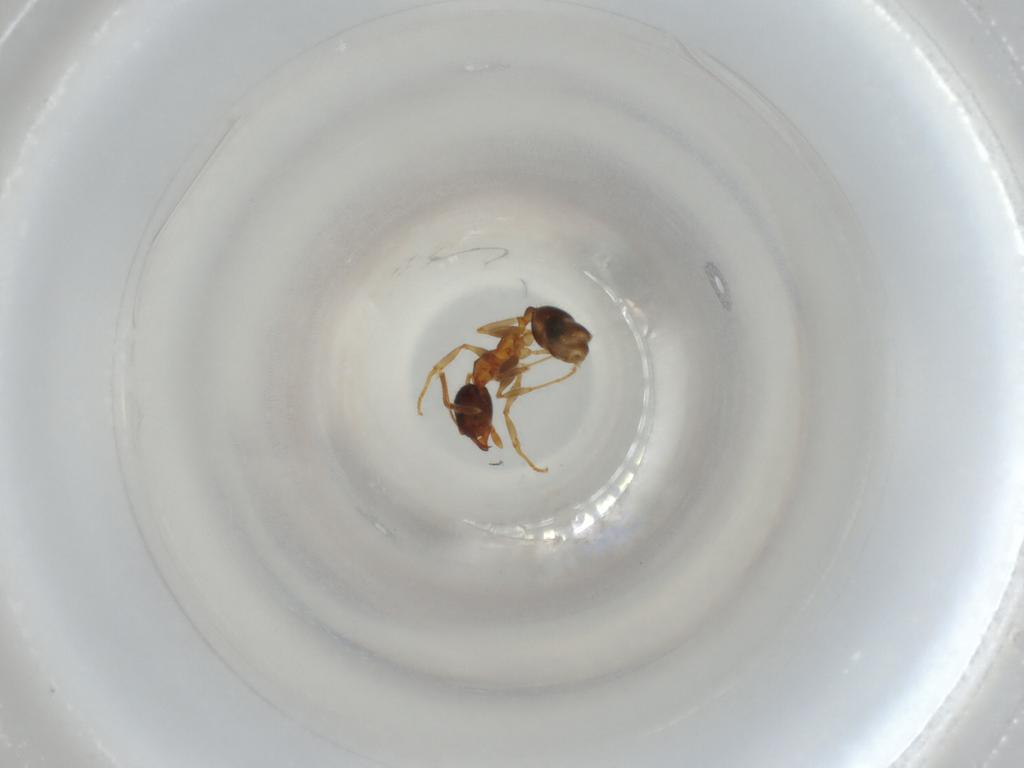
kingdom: Animalia
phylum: Arthropoda
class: Insecta
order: Hymenoptera
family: Formicidae
